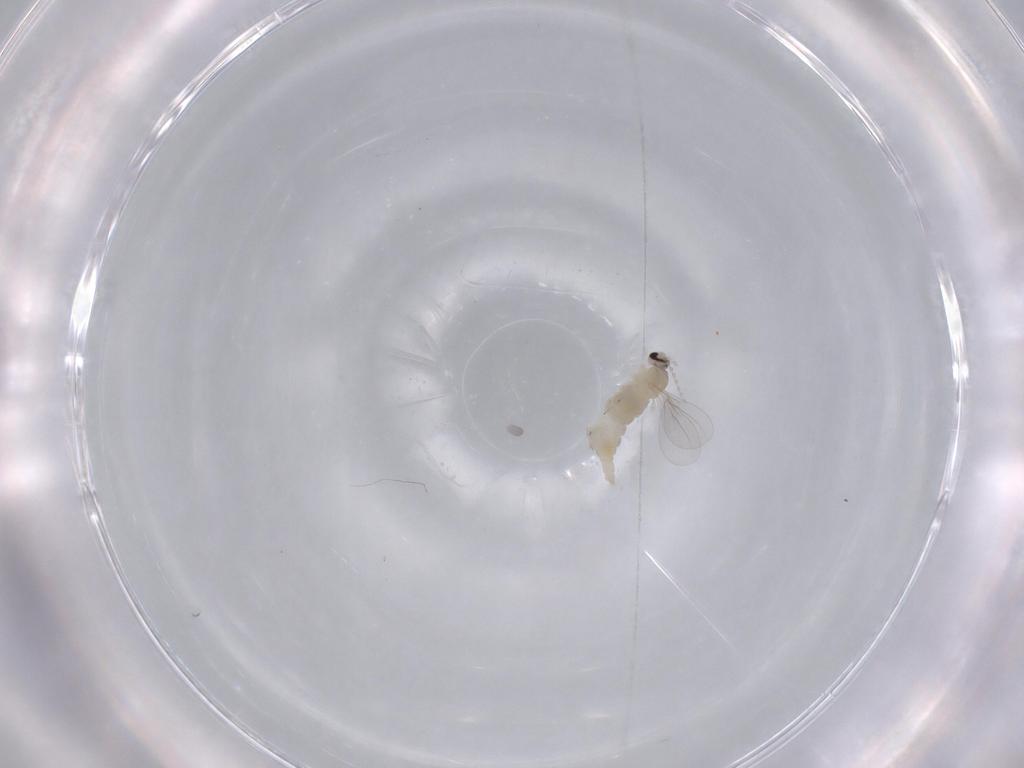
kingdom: Animalia
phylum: Arthropoda
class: Insecta
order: Diptera
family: Cecidomyiidae
